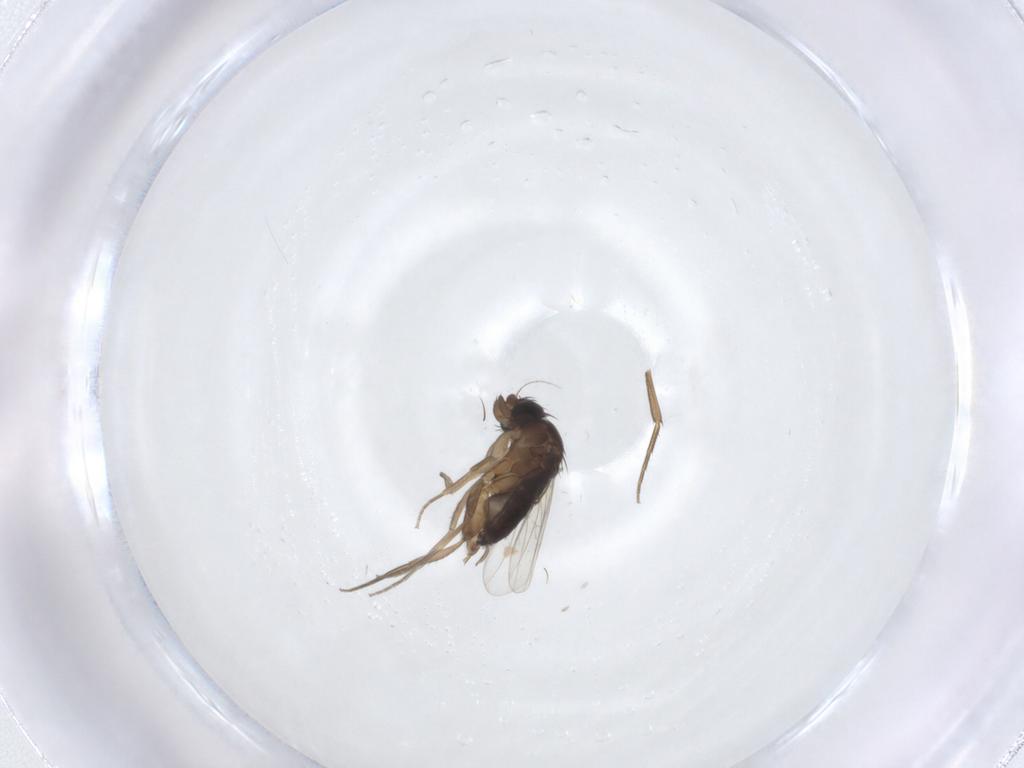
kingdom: Animalia
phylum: Arthropoda
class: Insecta
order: Diptera
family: Phoridae
